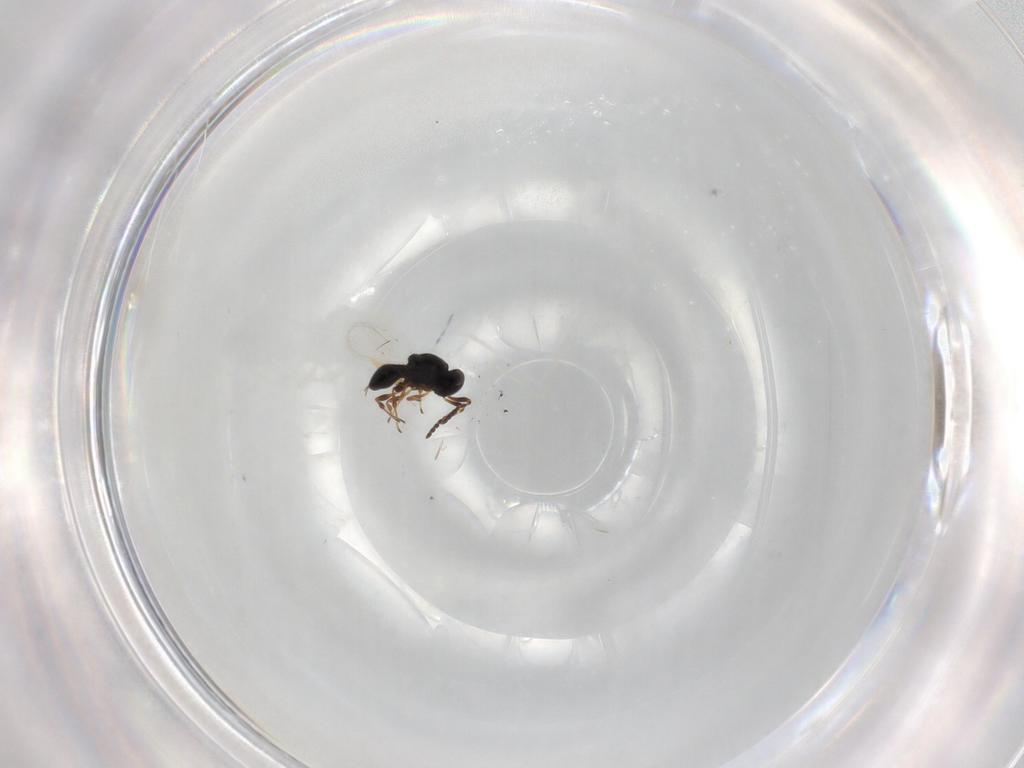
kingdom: Animalia
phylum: Arthropoda
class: Insecta
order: Hymenoptera
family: Scelionidae
